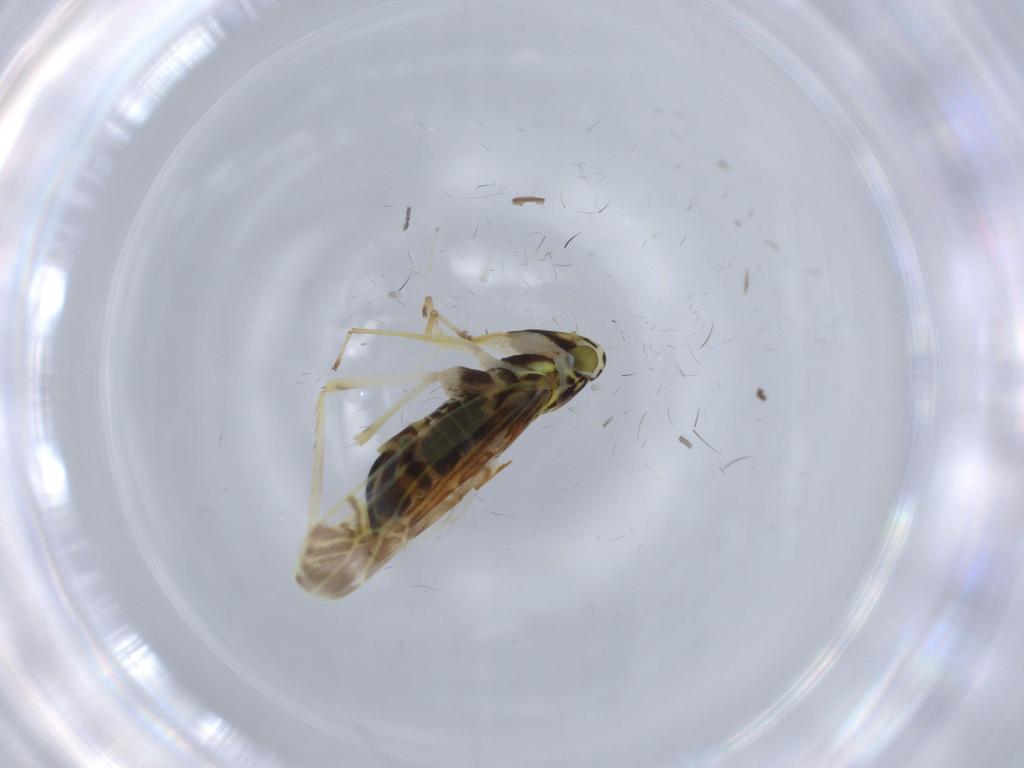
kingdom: Animalia
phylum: Arthropoda
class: Insecta
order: Hemiptera
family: Cicadellidae
